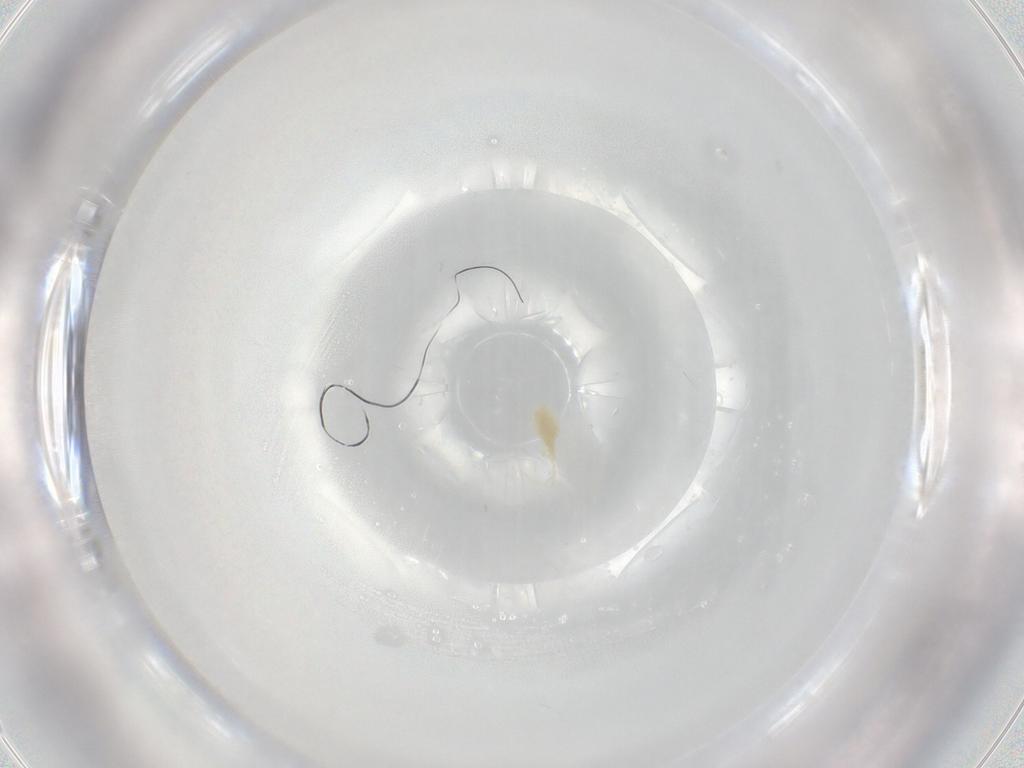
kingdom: Animalia
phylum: Arthropoda
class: Arachnida
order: Trombidiformes
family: Eupodidae
